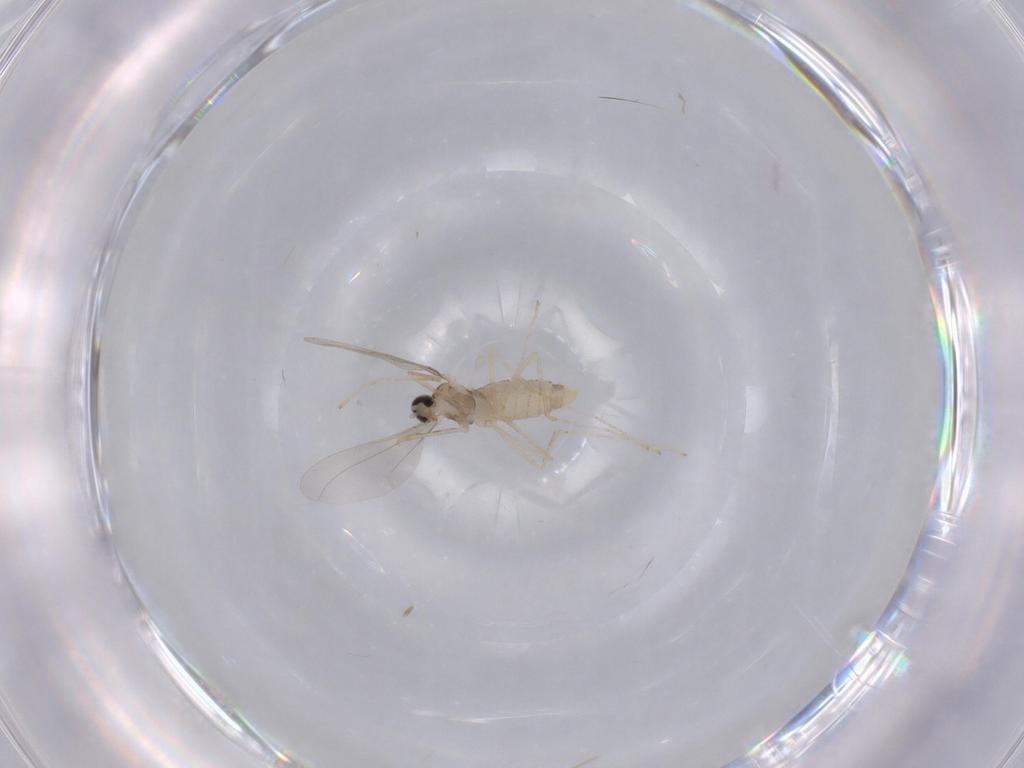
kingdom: Animalia
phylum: Arthropoda
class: Insecta
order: Diptera
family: Cecidomyiidae
